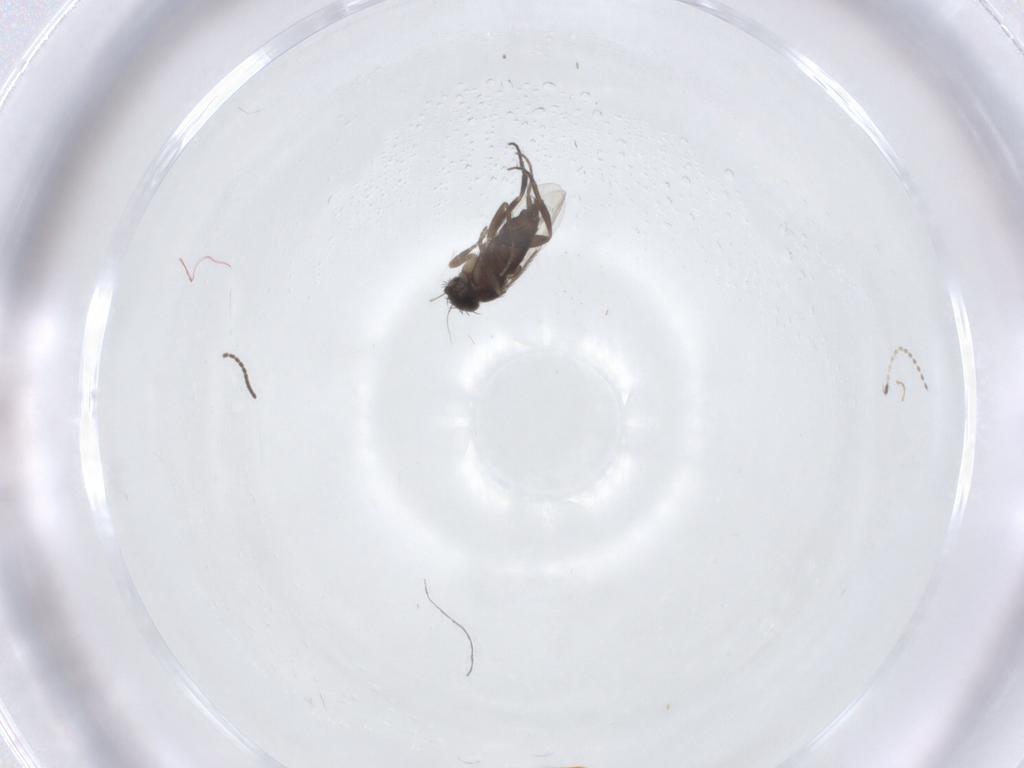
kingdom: Animalia
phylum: Arthropoda
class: Insecta
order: Diptera
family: Sciaridae
